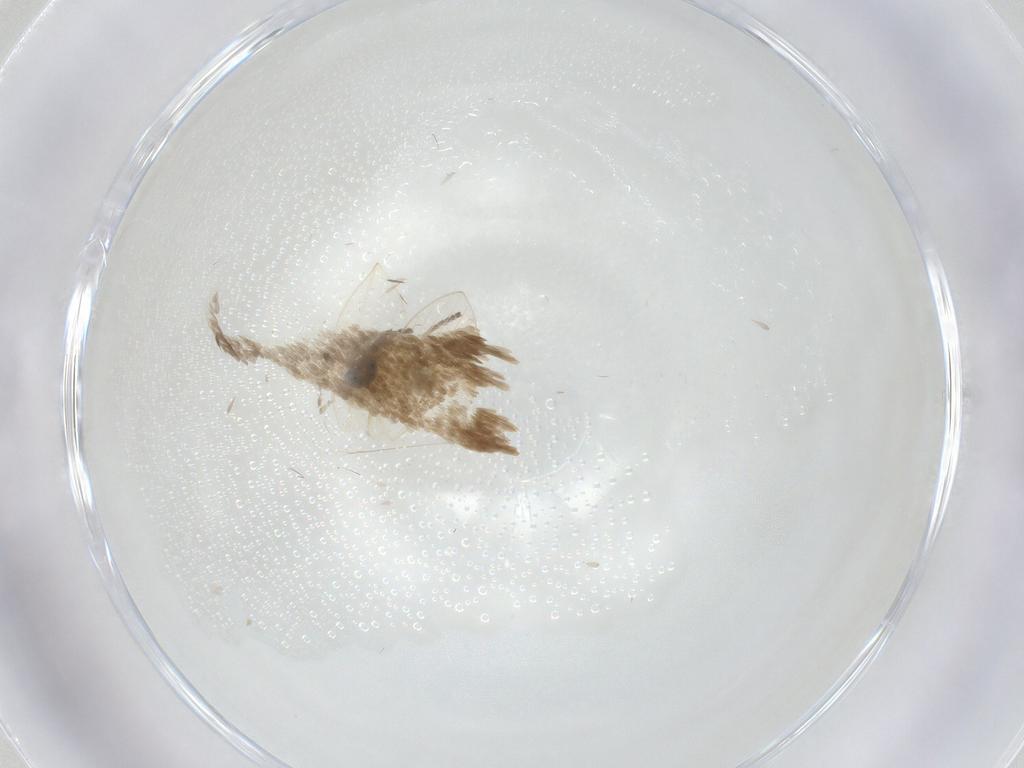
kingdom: Animalia
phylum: Arthropoda
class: Insecta
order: Diptera
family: Psychodidae
